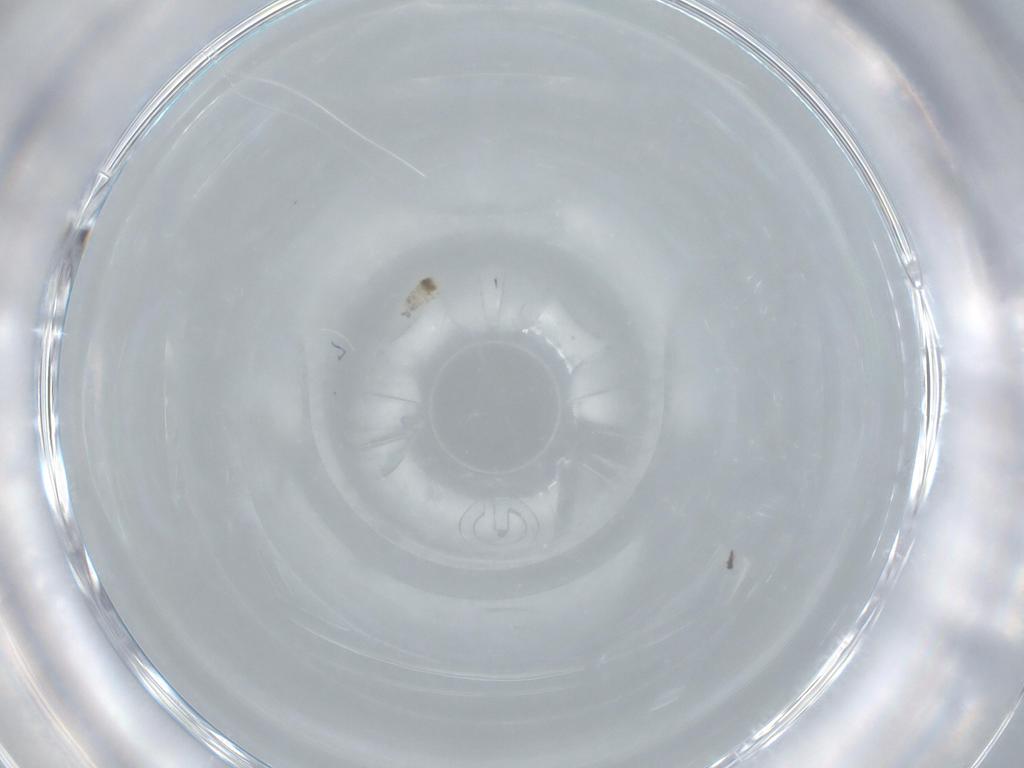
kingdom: Animalia
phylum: Arthropoda
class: Insecta
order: Diptera
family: Cecidomyiidae
